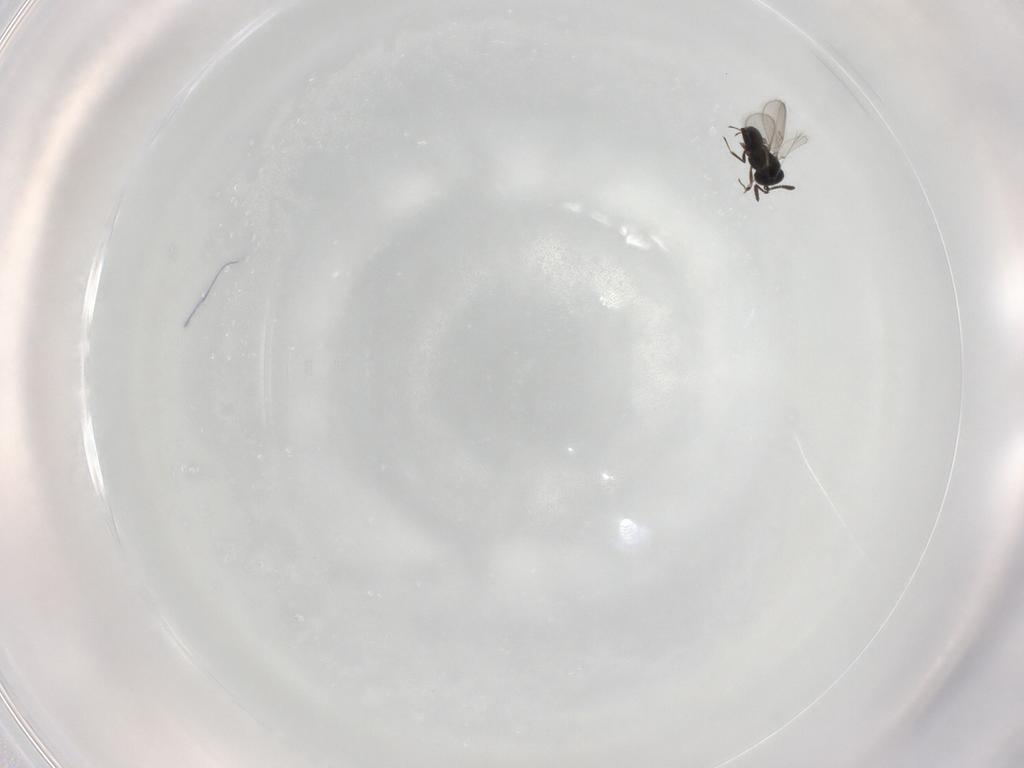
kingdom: Animalia
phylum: Arthropoda
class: Insecta
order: Hymenoptera
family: Scelionidae
